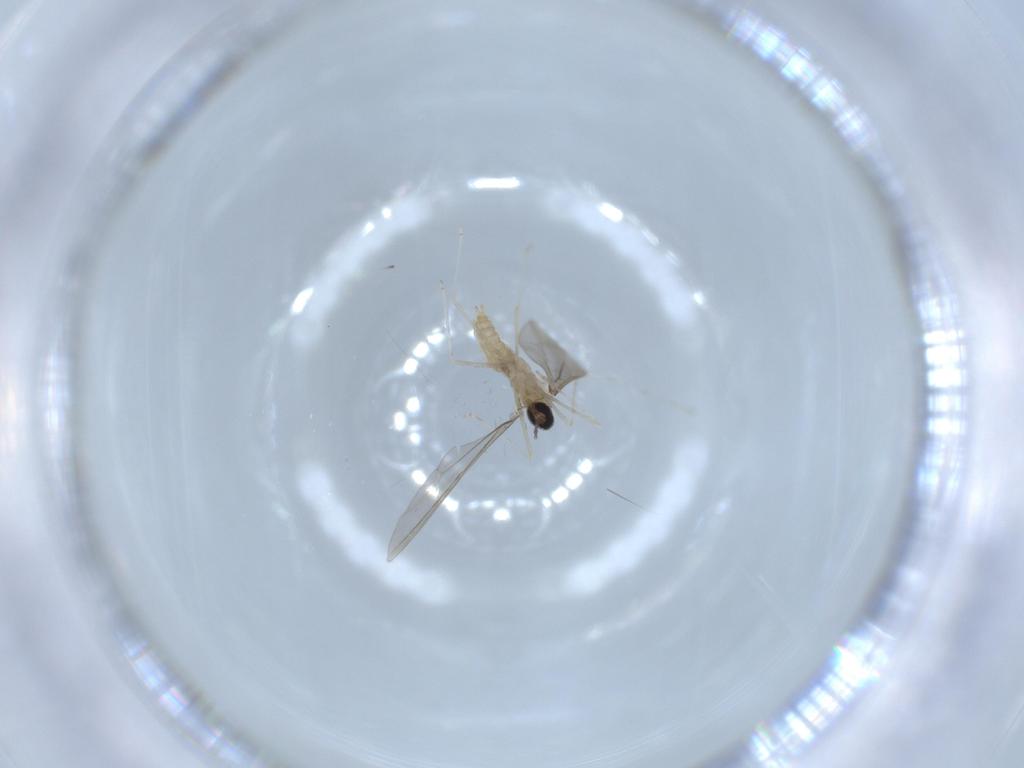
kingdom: Animalia
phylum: Arthropoda
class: Insecta
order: Diptera
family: Cecidomyiidae
